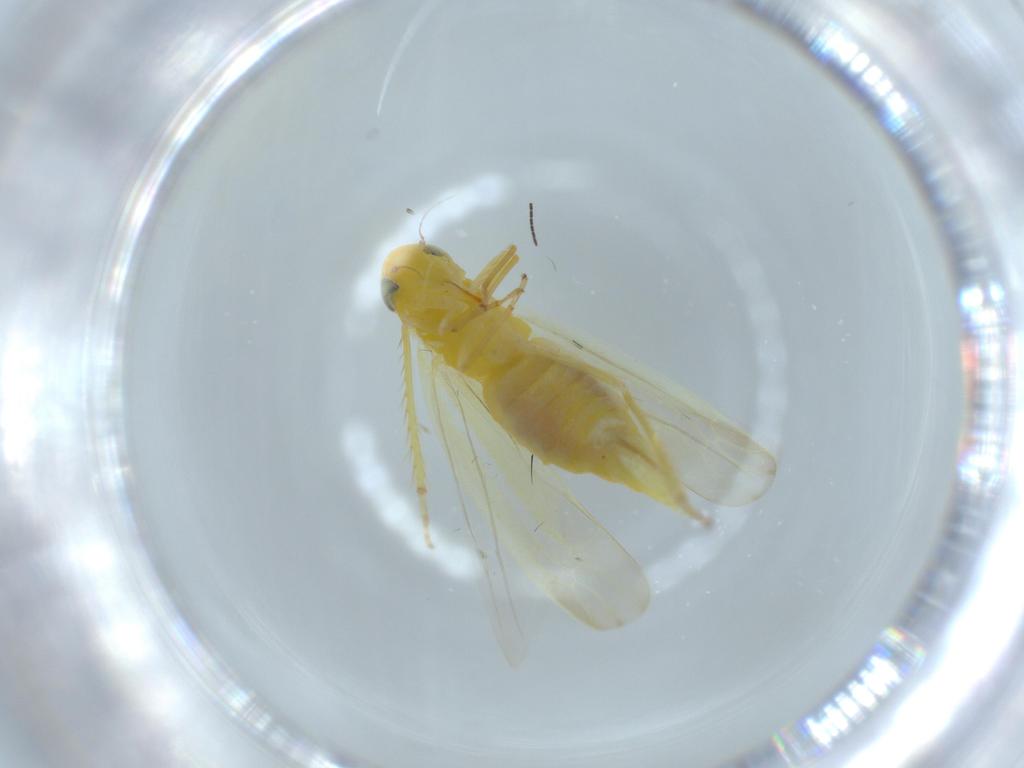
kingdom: Animalia
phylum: Arthropoda
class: Insecta
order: Hemiptera
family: Cicadellidae
